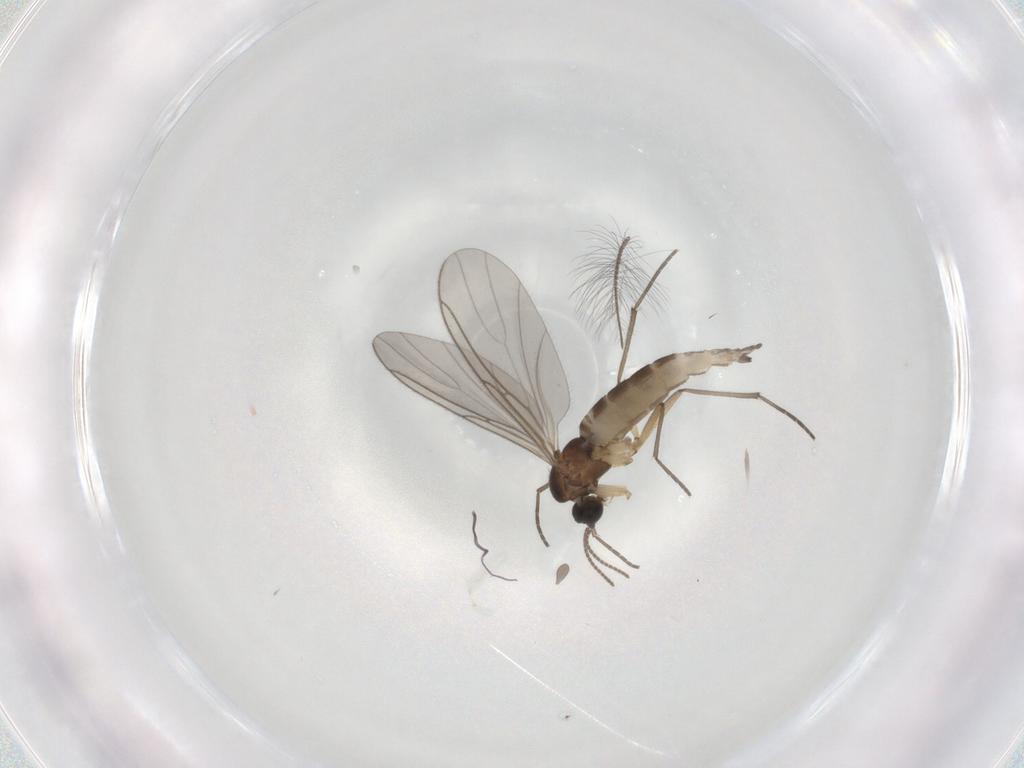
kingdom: Animalia
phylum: Arthropoda
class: Insecta
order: Diptera
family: Sciaridae
